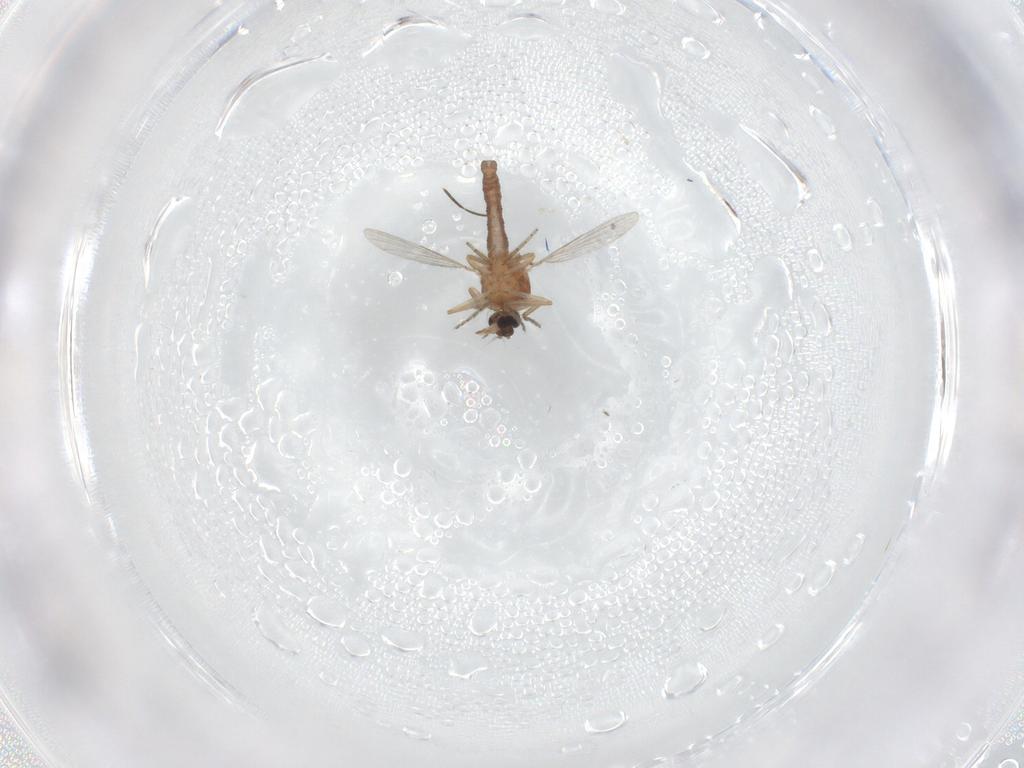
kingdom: Animalia
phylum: Arthropoda
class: Insecta
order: Diptera
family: Ceratopogonidae
